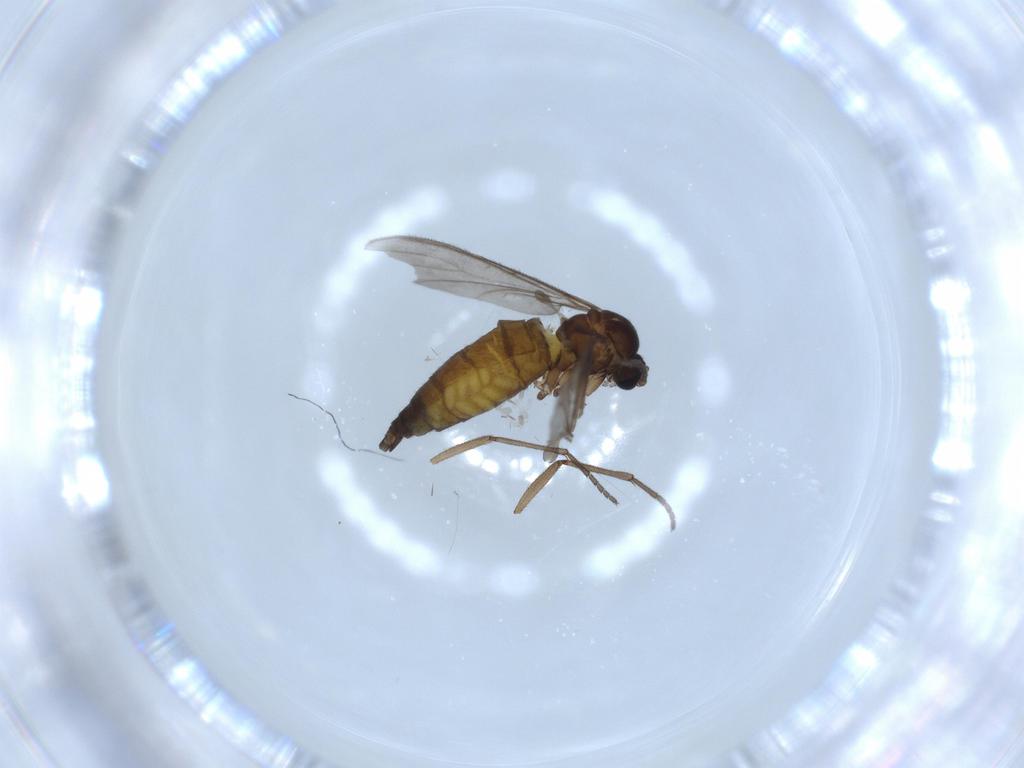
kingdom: Animalia
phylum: Arthropoda
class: Insecta
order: Diptera
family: Sciaridae
